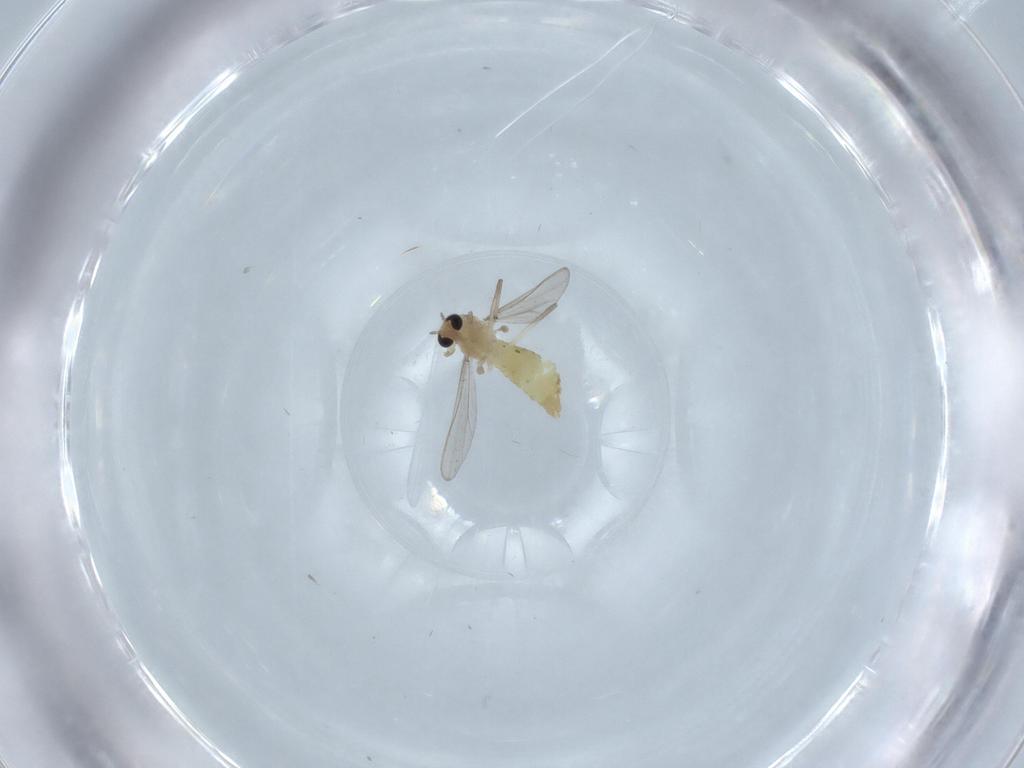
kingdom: Animalia
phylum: Arthropoda
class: Insecta
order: Diptera
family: Chironomidae
